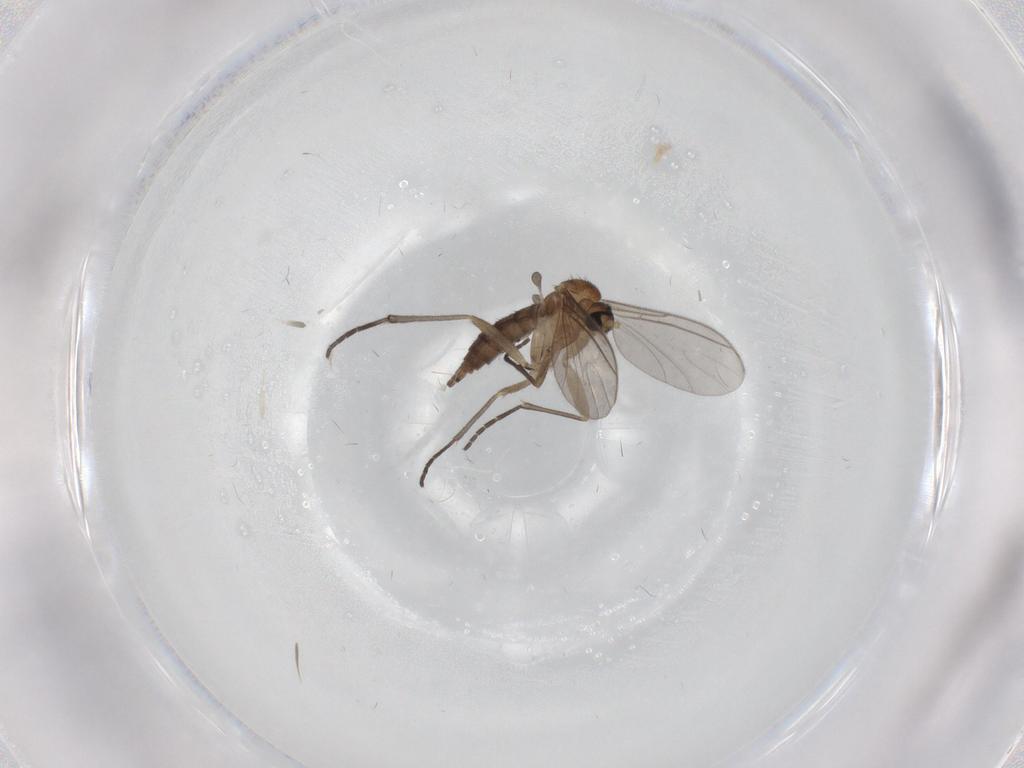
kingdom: Animalia
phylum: Arthropoda
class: Insecta
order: Diptera
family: Sciaridae
